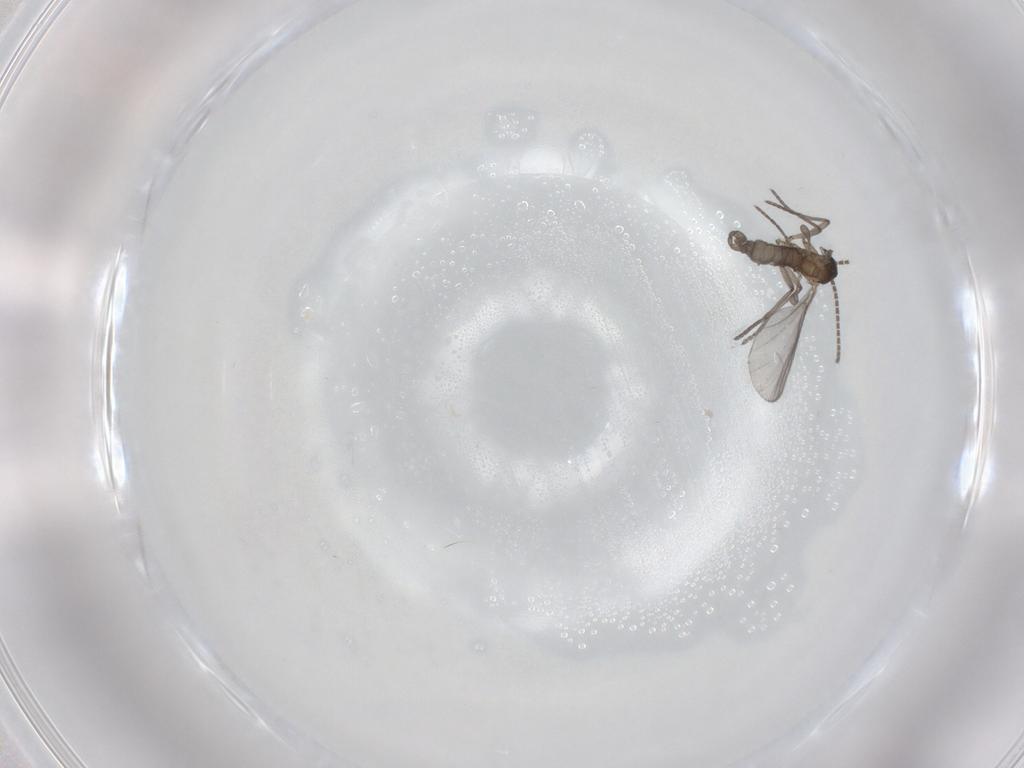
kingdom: Animalia
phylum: Arthropoda
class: Insecta
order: Diptera
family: Sciaridae
